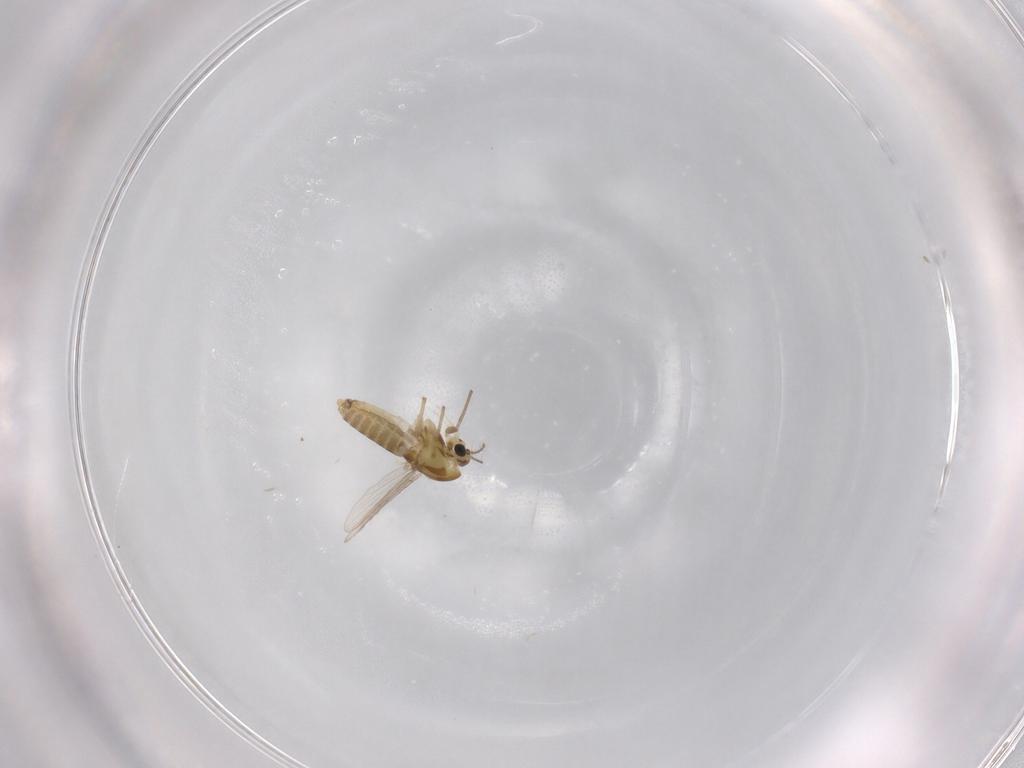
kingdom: Animalia
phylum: Arthropoda
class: Insecta
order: Diptera
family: Chironomidae
